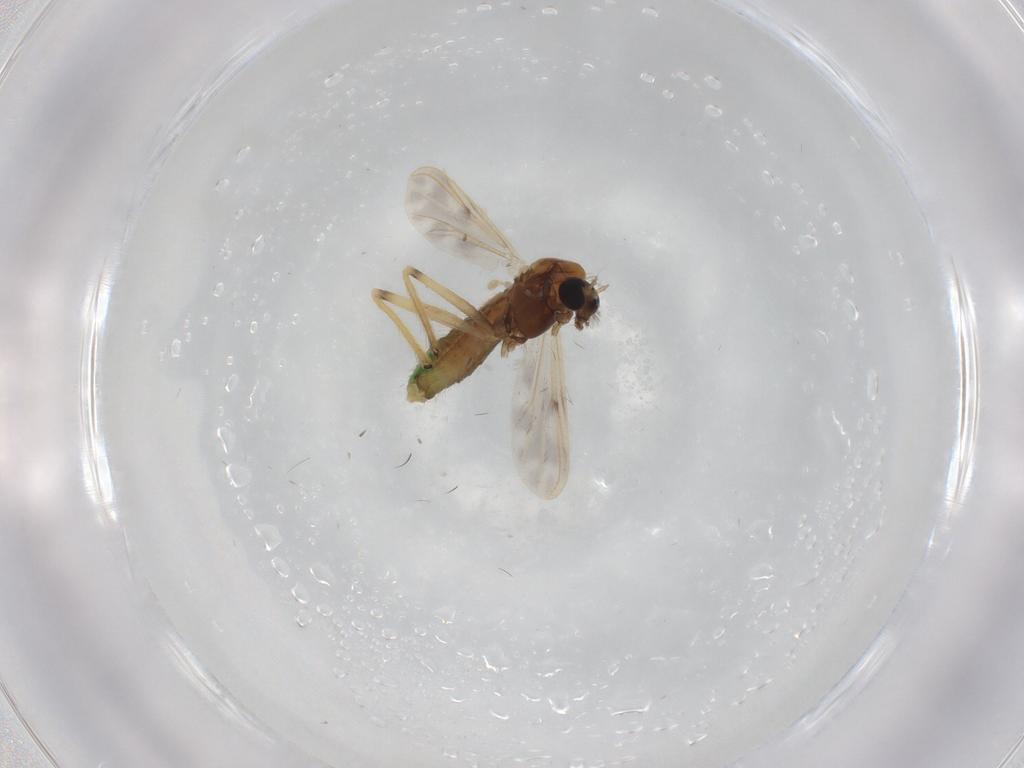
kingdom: Animalia
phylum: Arthropoda
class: Insecta
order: Diptera
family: Chironomidae
